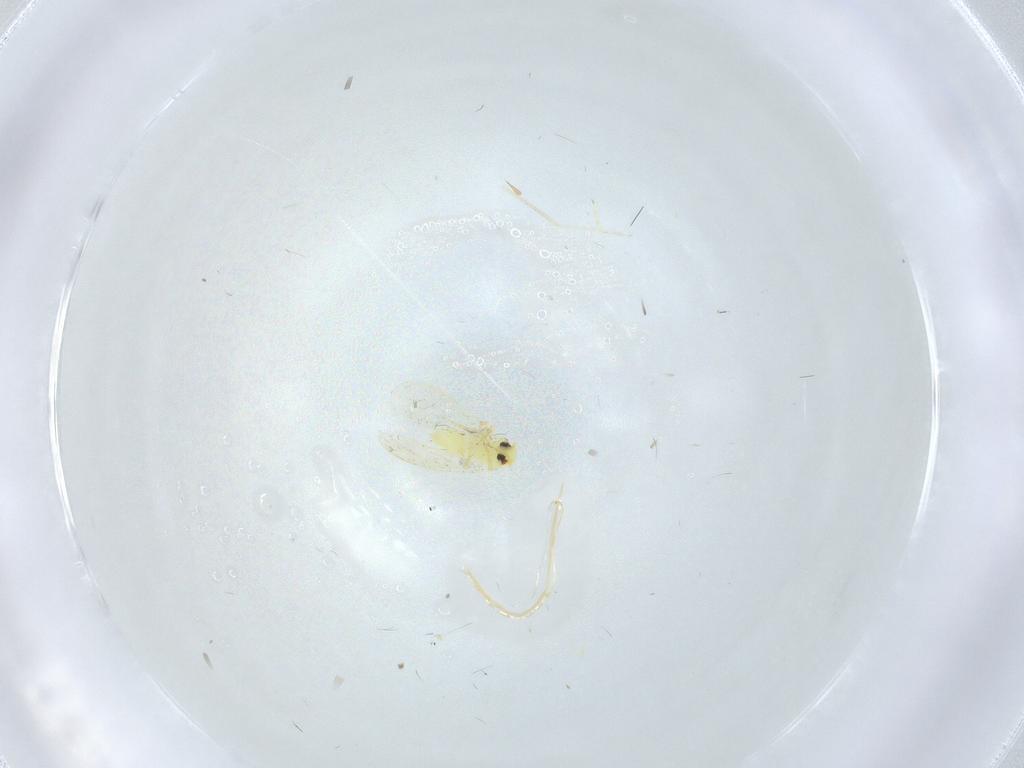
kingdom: Animalia
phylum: Arthropoda
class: Insecta
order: Hemiptera
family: Aleyrodidae
